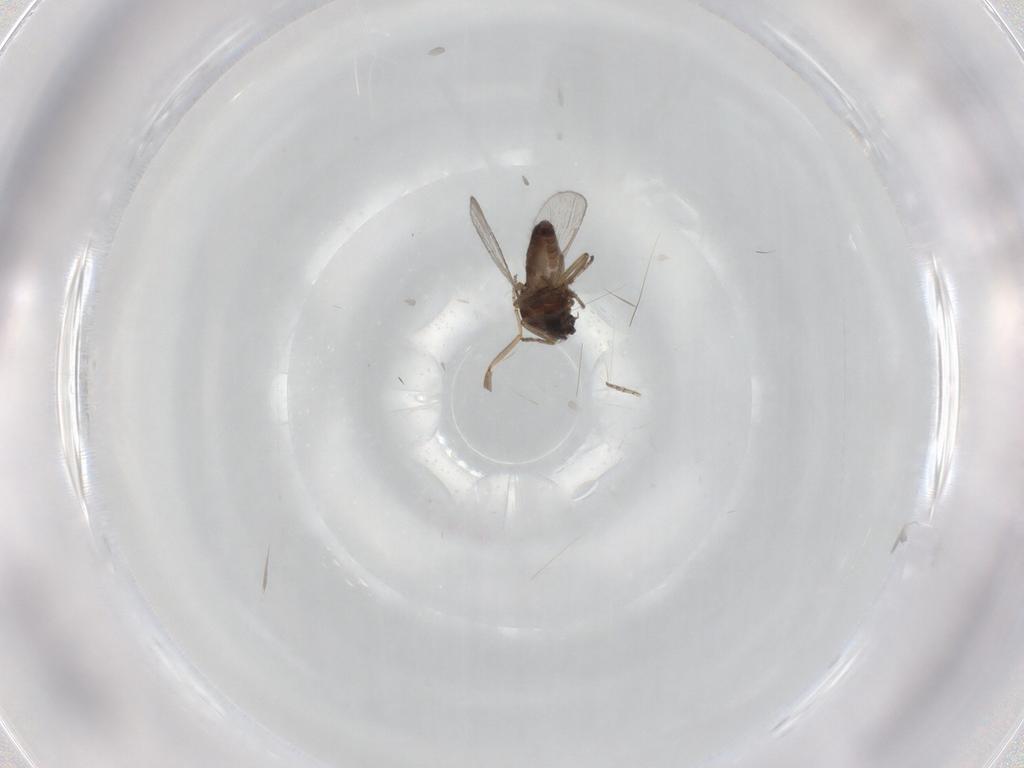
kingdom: Animalia
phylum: Arthropoda
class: Insecta
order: Diptera
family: Ceratopogonidae
